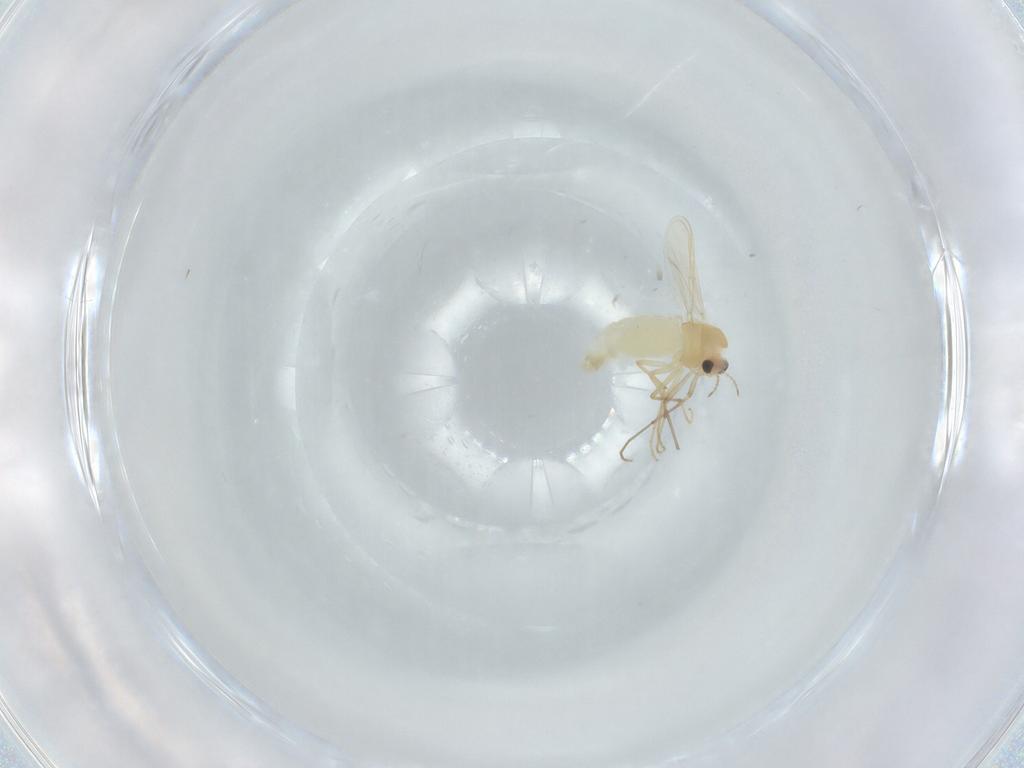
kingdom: Animalia
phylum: Arthropoda
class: Insecta
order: Diptera
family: Chironomidae
